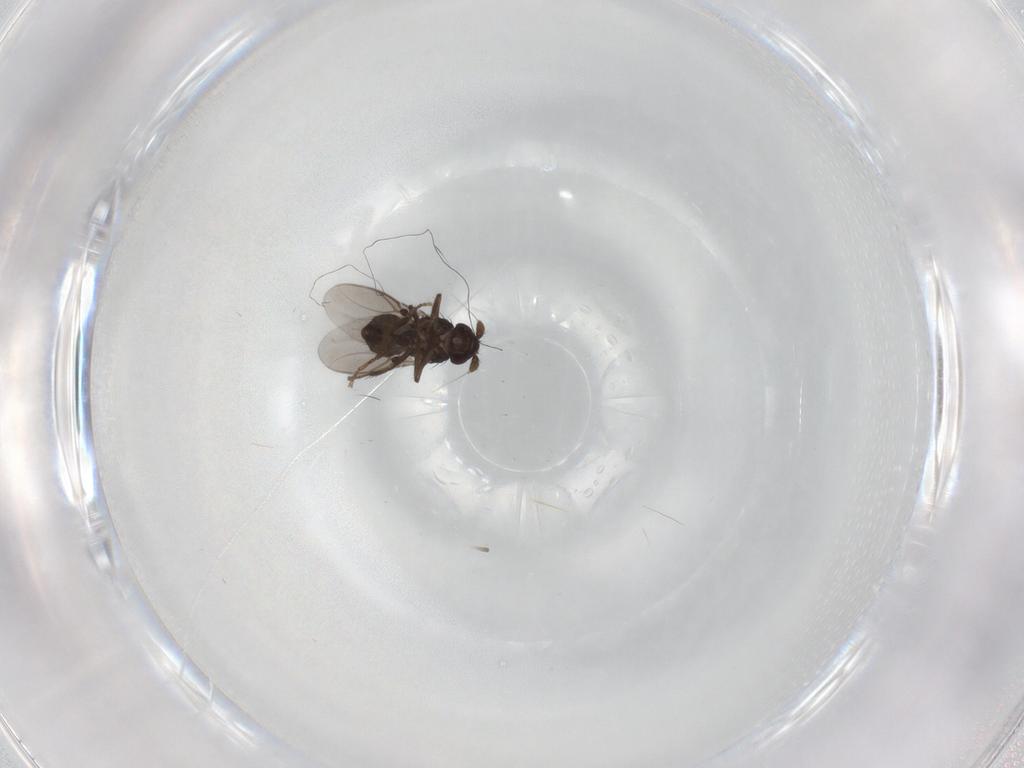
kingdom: Animalia
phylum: Arthropoda
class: Insecta
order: Diptera
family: Sphaeroceridae
